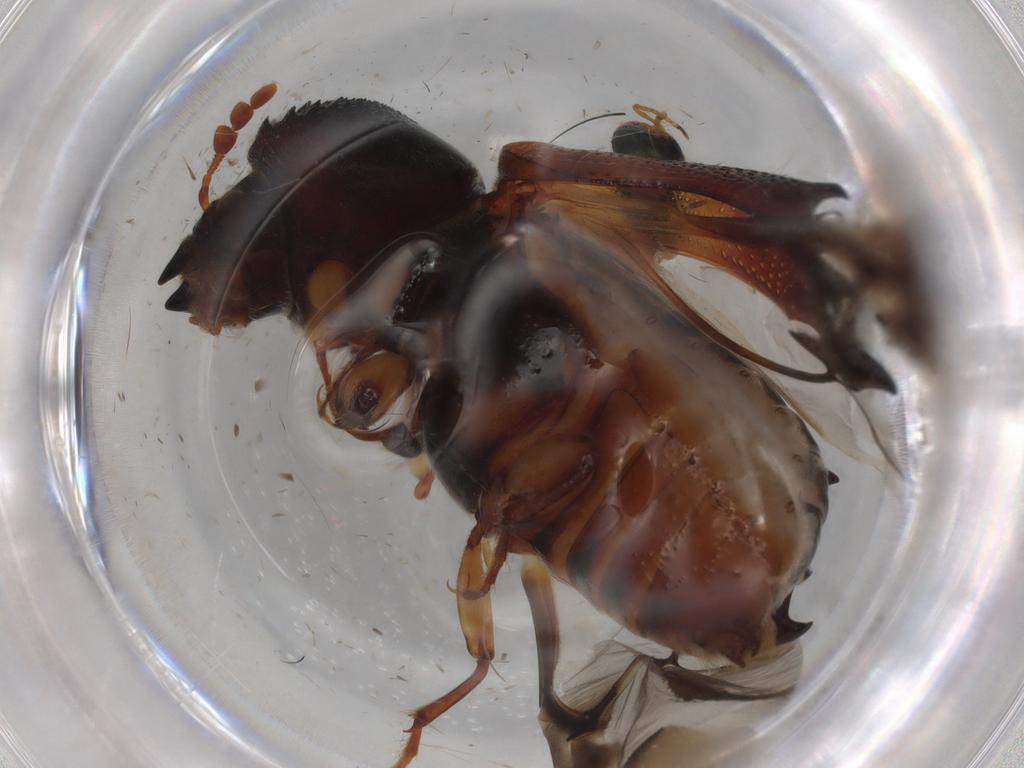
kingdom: Animalia
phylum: Arthropoda
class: Insecta
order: Coleoptera
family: Bostrichidae
